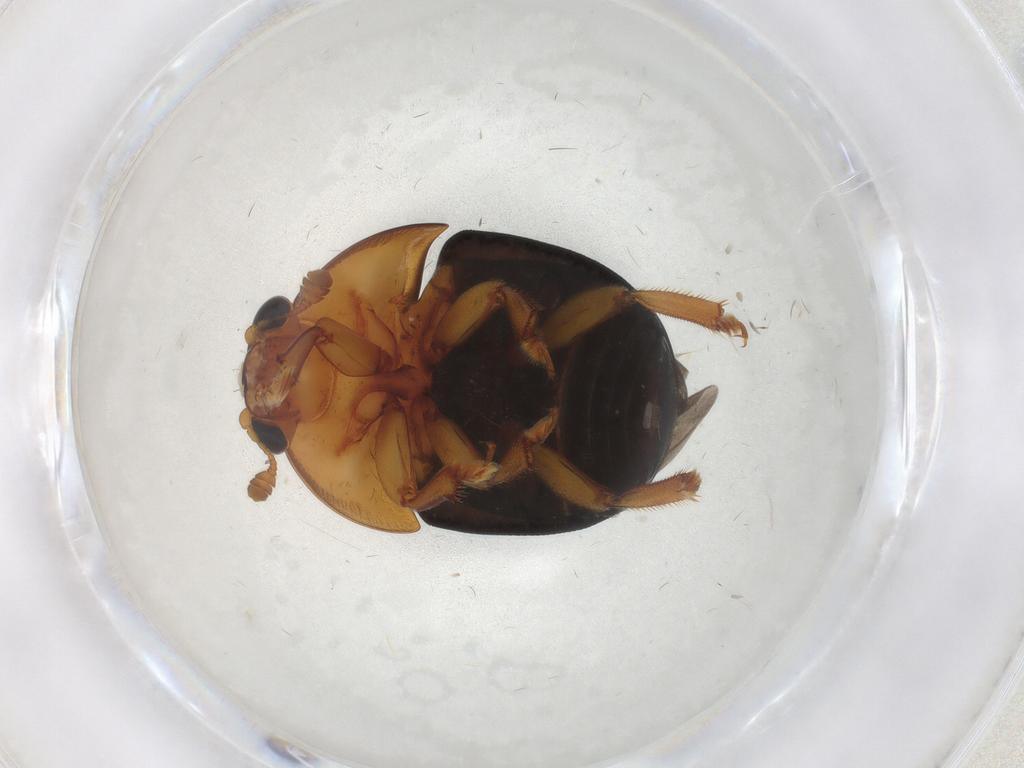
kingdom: Animalia
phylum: Arthropoda
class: Insecta
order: Coleoptera
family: Nitidulidae
